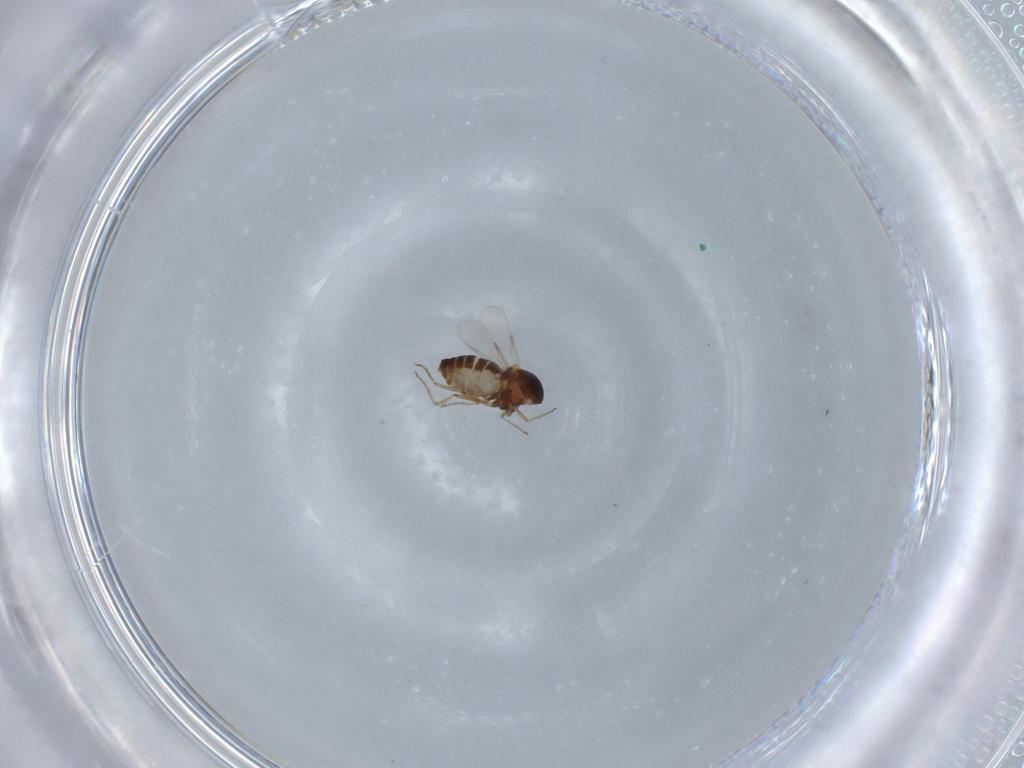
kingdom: Animalia
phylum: Arthropoda
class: Insecta
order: Diptera
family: Ceratopogonidae
